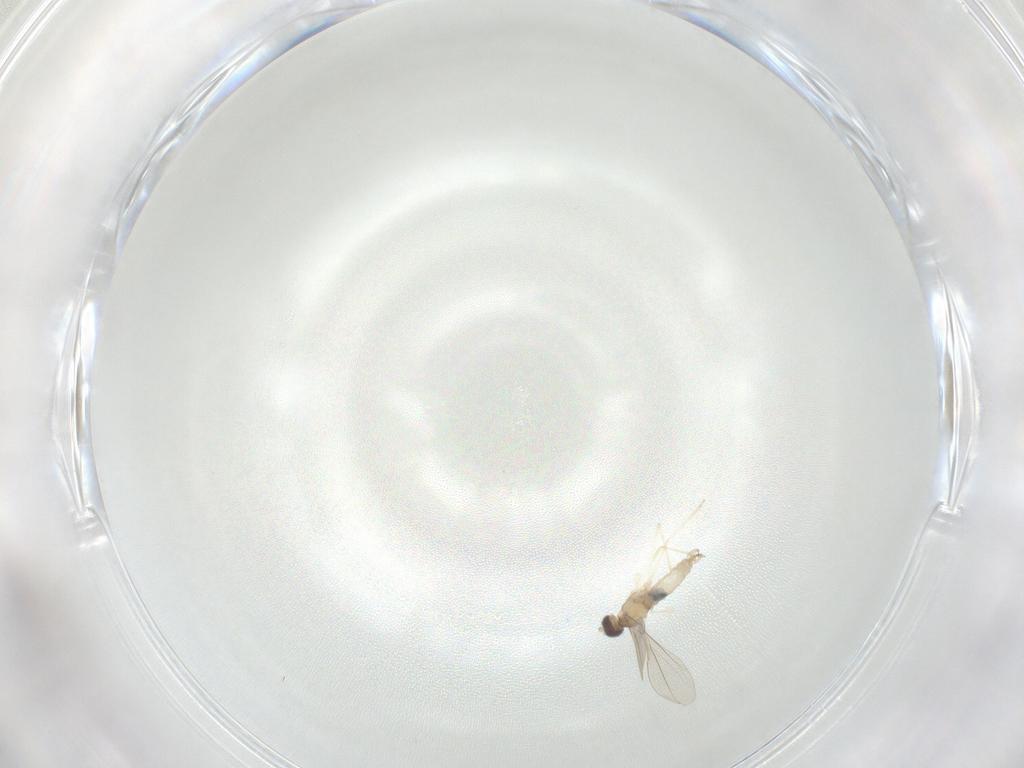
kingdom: Animalia
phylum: Arthropoda
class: Insecta
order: Diptera
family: Cecidomyiidae
